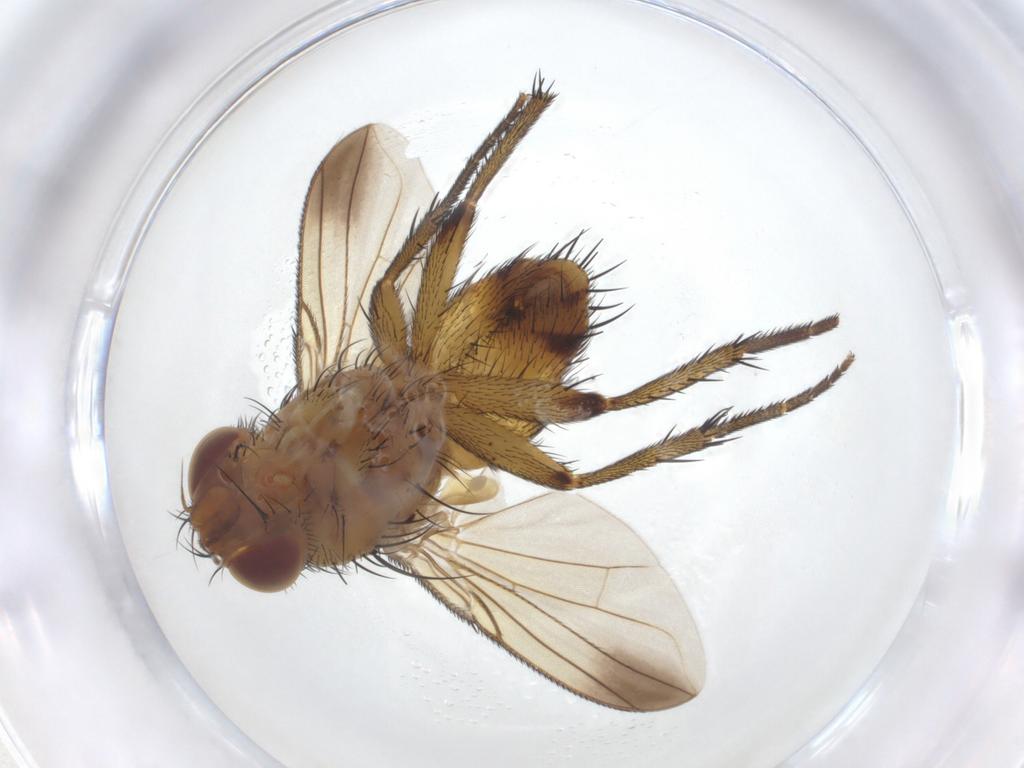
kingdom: Animalia
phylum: Arthropoda
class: Insecta
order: Diptera
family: Tachinidae
